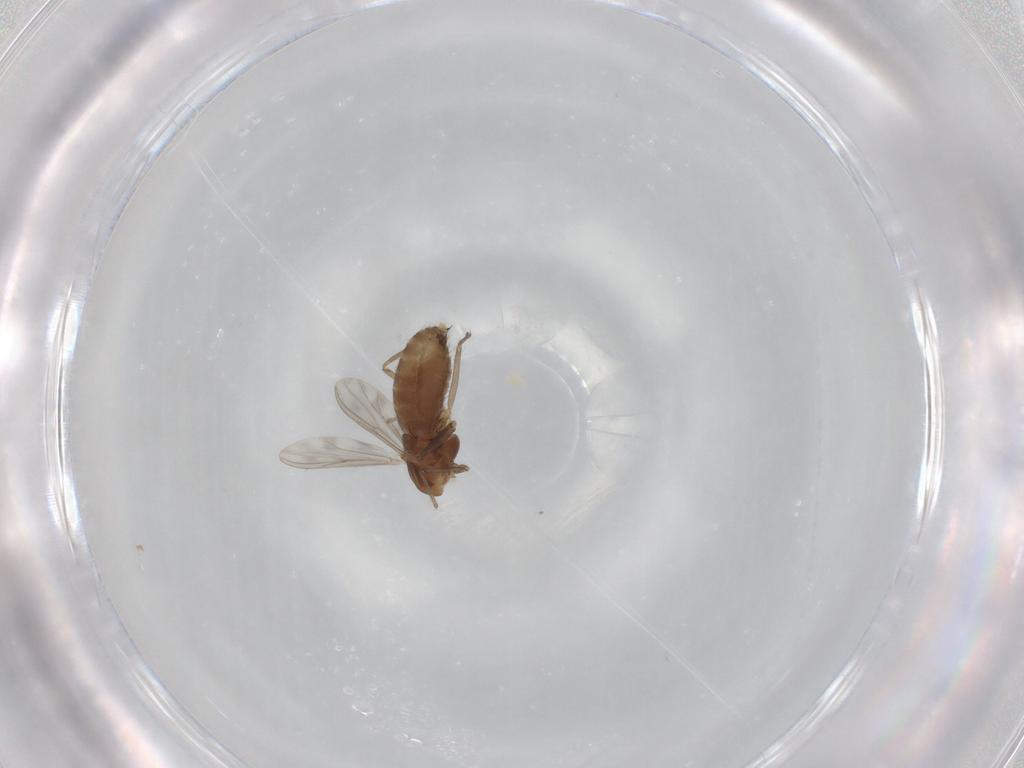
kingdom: Animalia
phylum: Arthropoda
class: Insecta
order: Diptera
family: Chironomidae
